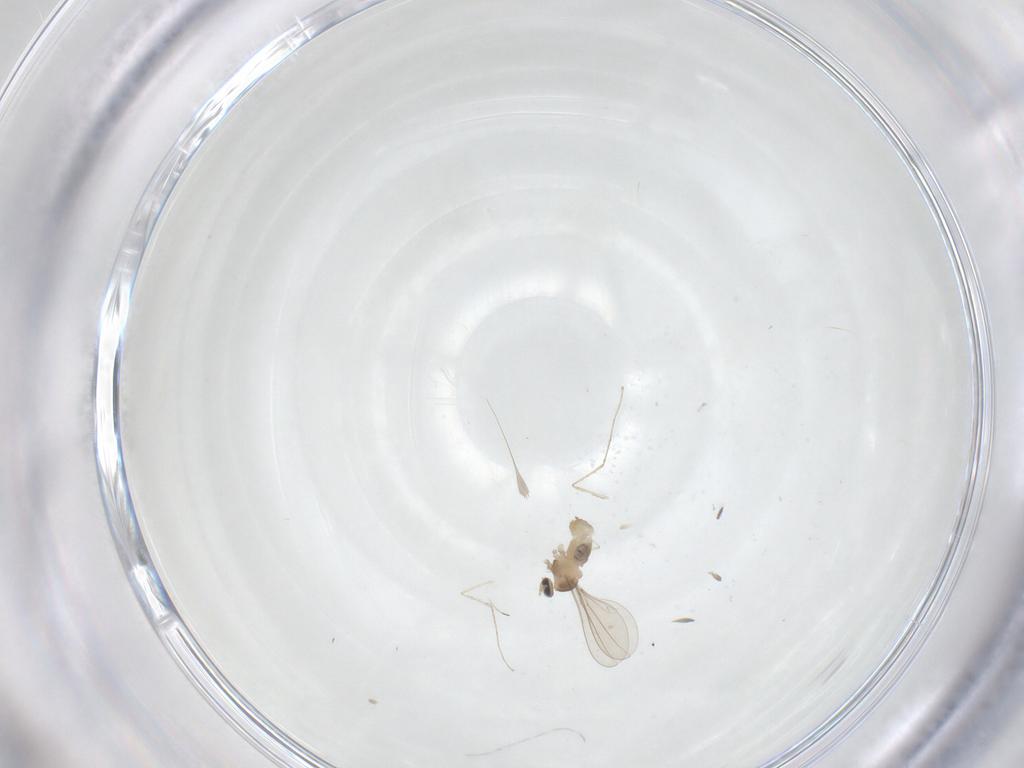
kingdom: Animalia
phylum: Arthropoda
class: Insecta
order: Diptera
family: Cecidomyiidae
